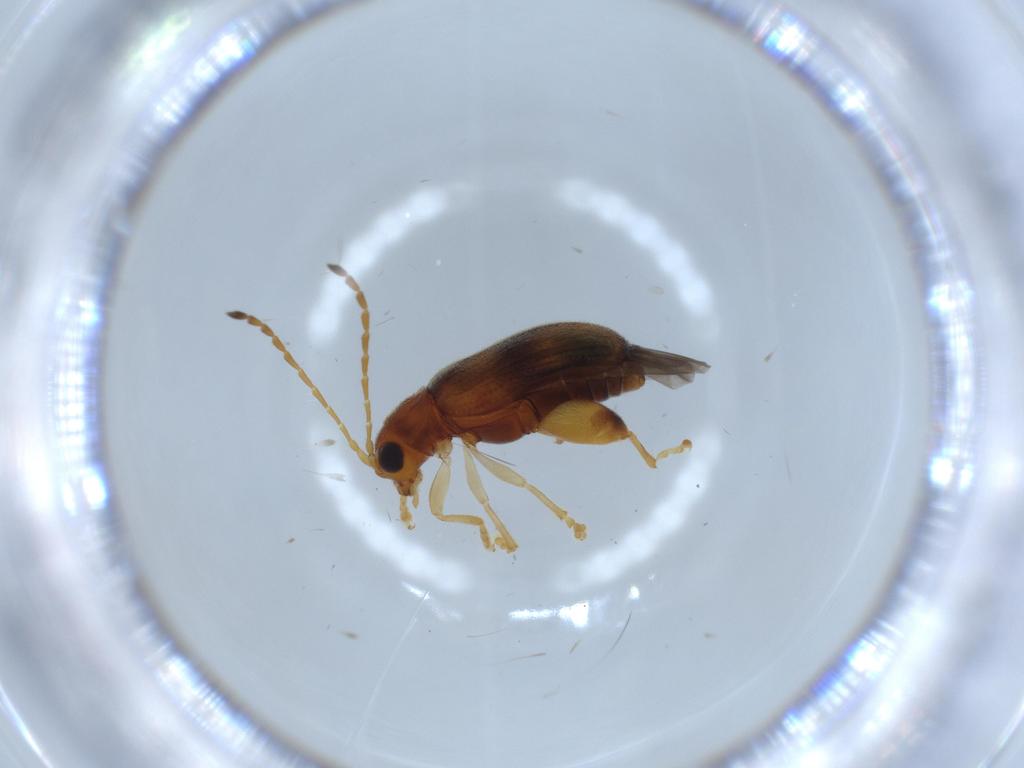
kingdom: Animalia
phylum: Arthropoda
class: Insecta
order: Coleoptera
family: Chrysomelidae
